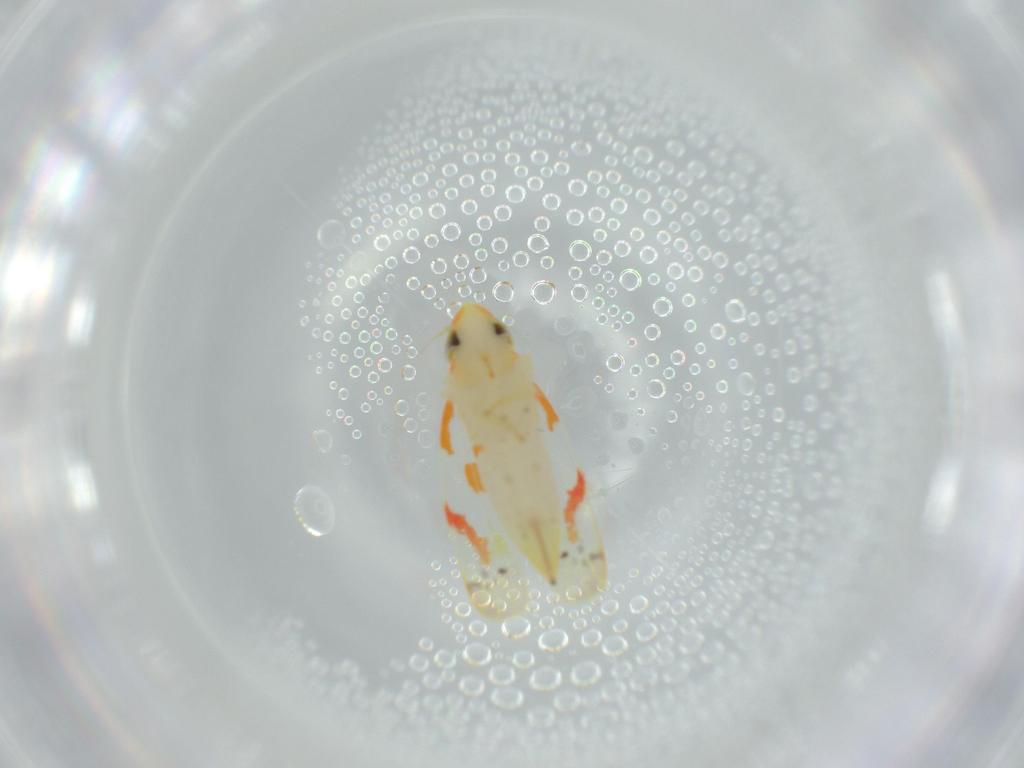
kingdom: Animalia
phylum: Arthropoda
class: Insecta
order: Hemiptera
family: Cicadellidae
